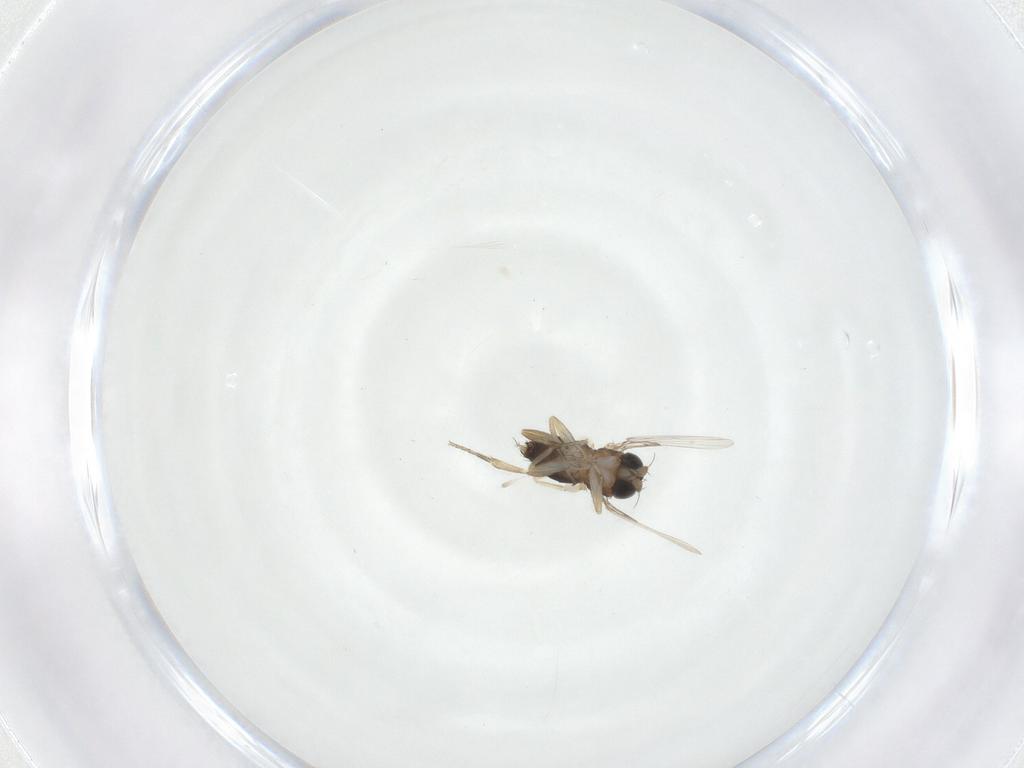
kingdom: Animalia
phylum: Arthropoda
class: Insecta
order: Diptera
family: Phoridae
